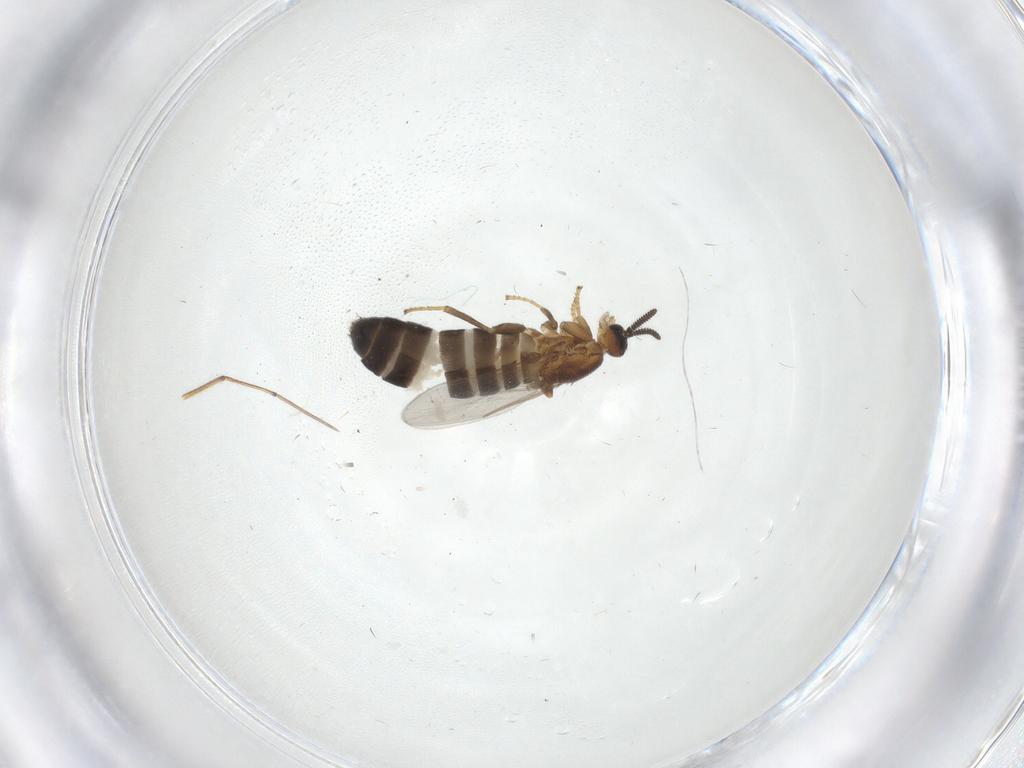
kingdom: Animalia
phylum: Arthropoda
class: Insecta
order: Diptera
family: Scatopsidae
